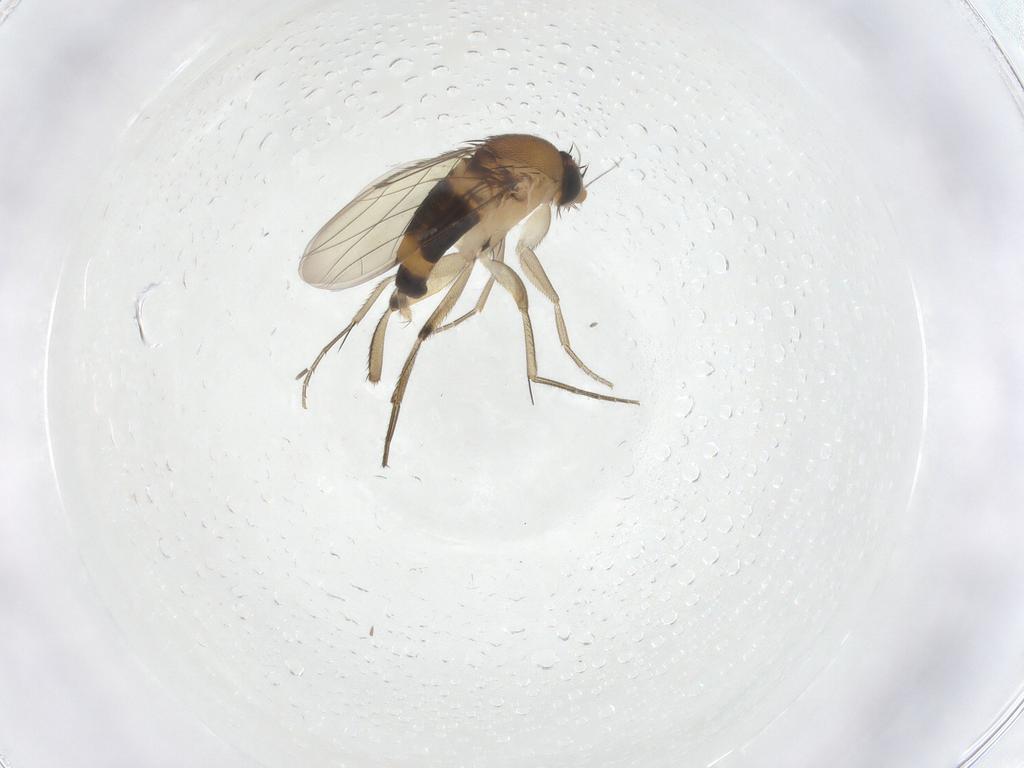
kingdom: Animalia
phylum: Arthropoda
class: Insecta
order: Diptera
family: Phoridae
